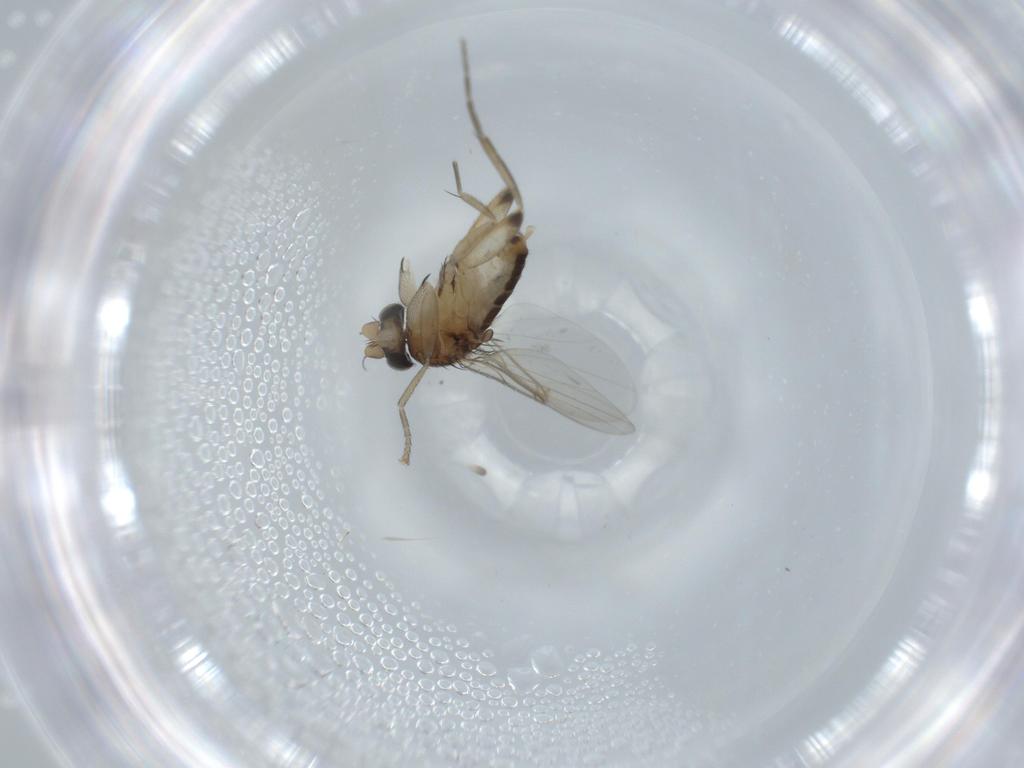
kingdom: Animalia
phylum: Arthropoda
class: Insecta
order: Diptera
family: Phoridae
